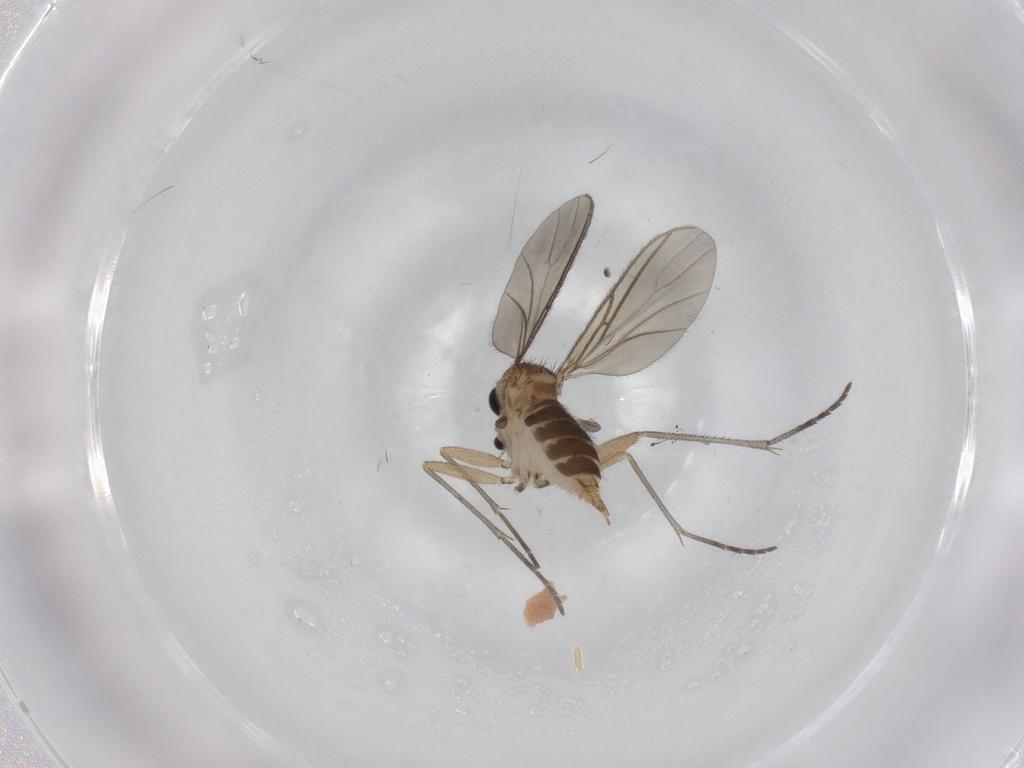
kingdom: Animalia
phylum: Arthropoda
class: Insecta
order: Diptera
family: Sciaridae
